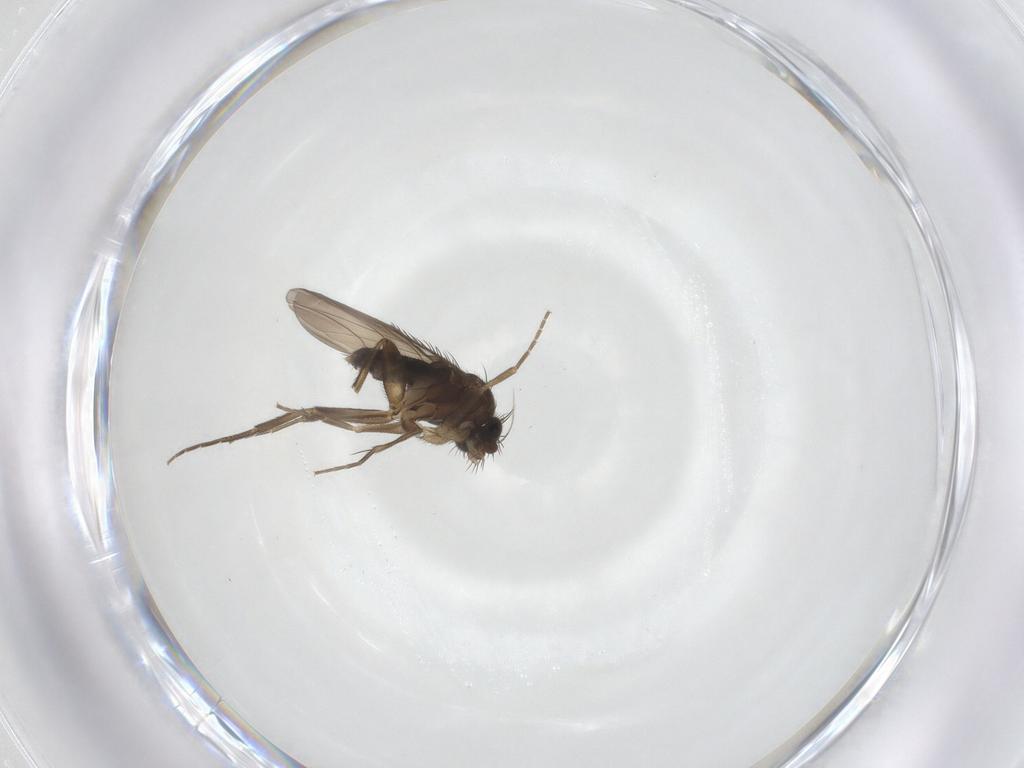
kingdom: Animalia
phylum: Arthropoda
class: Insecta
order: Diptera
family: Phoridae
